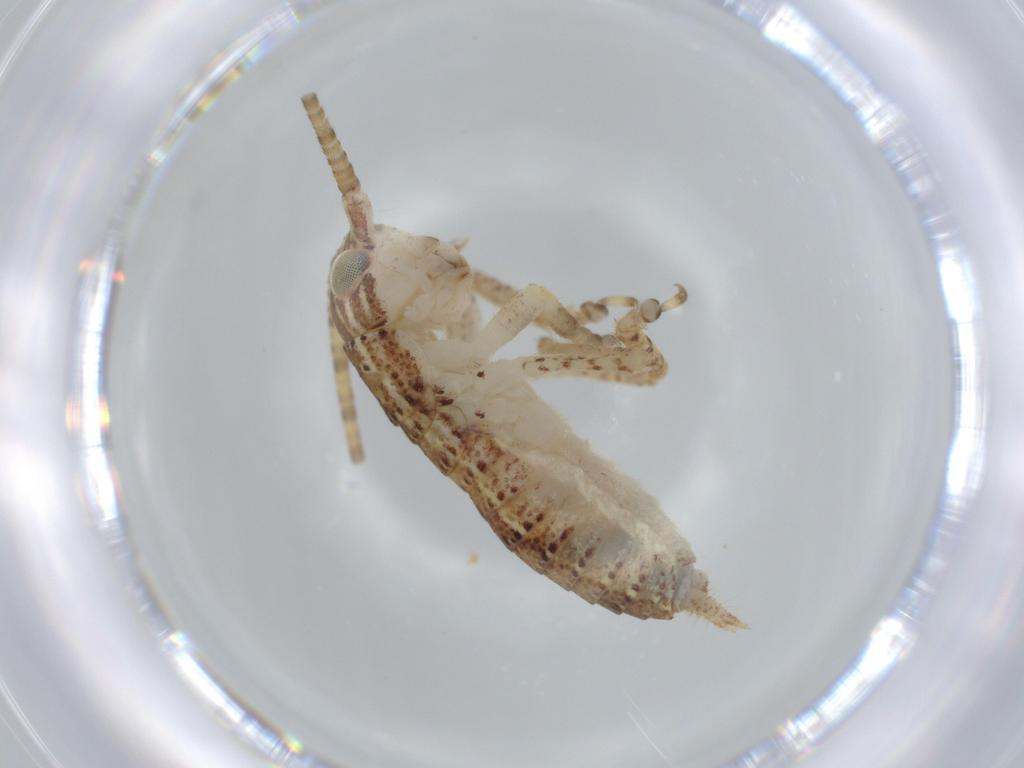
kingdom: Animalia
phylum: Arthropoda
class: Insecta
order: Orthoptera
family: Gryllidae
